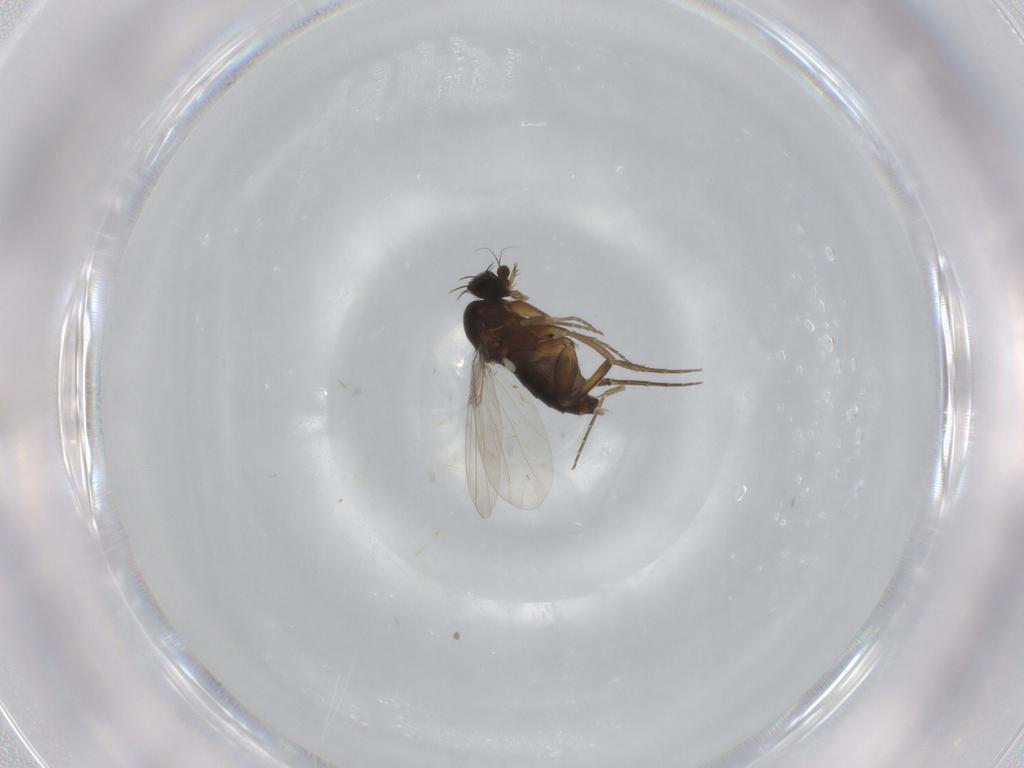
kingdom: Animalia
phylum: Arthropoda
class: Insecta
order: Diptera
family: Phoridae
